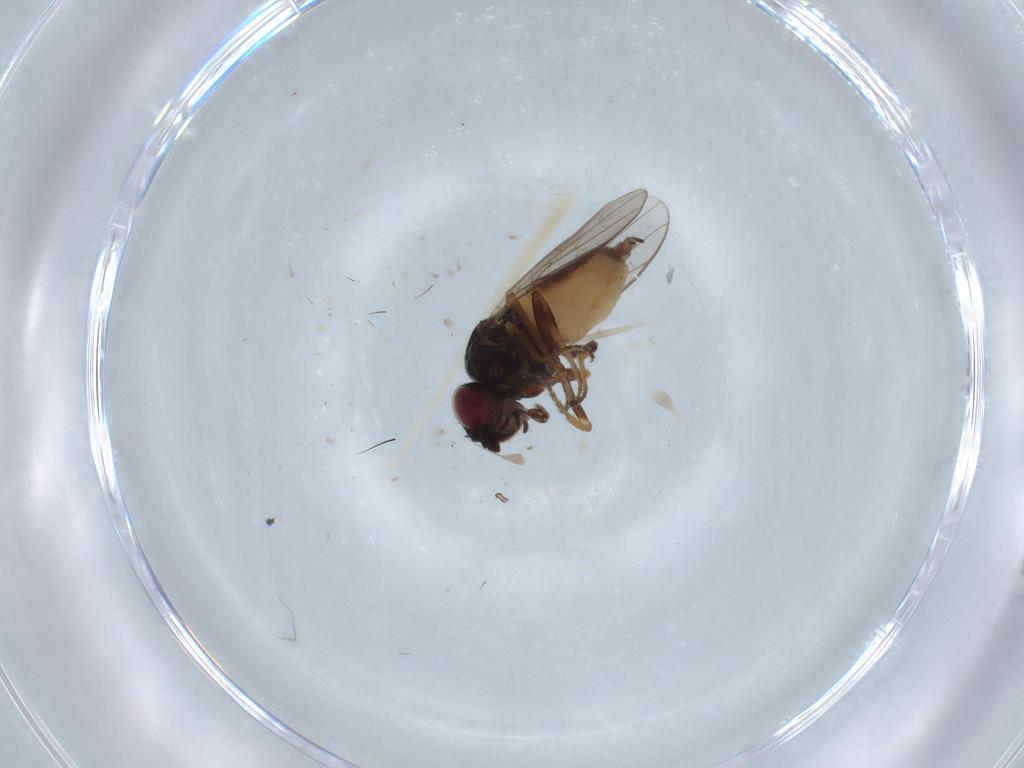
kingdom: Animalia
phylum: Arthropoda
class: Insecta
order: Diptera
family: Chloropidae
